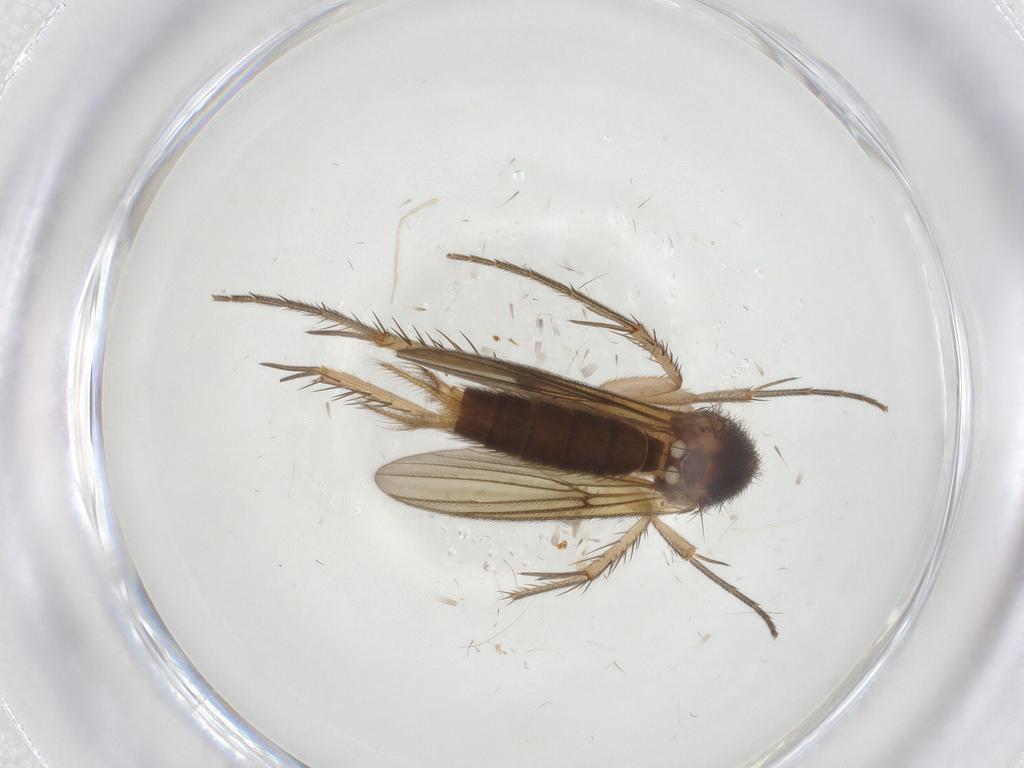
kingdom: Animalia
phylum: Arthropoda
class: Insecta
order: Diptera
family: Mycetophilidae
